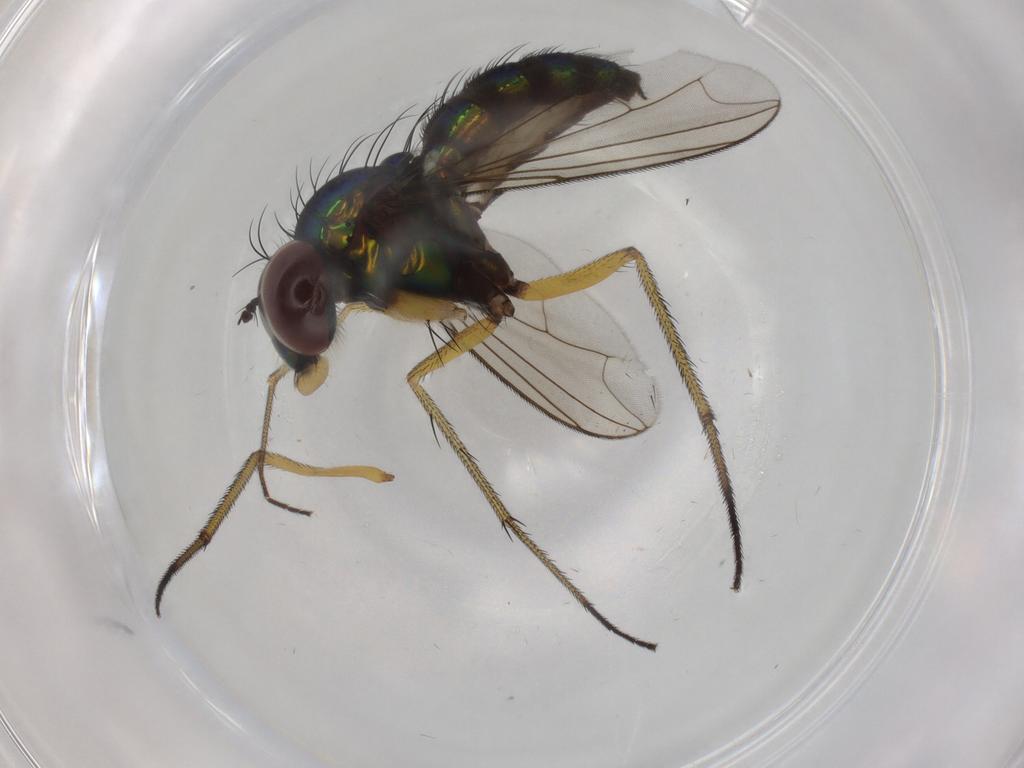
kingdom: Animalia
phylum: Arthropoda
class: Insecta
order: Diptera
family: Dolichopodidae
